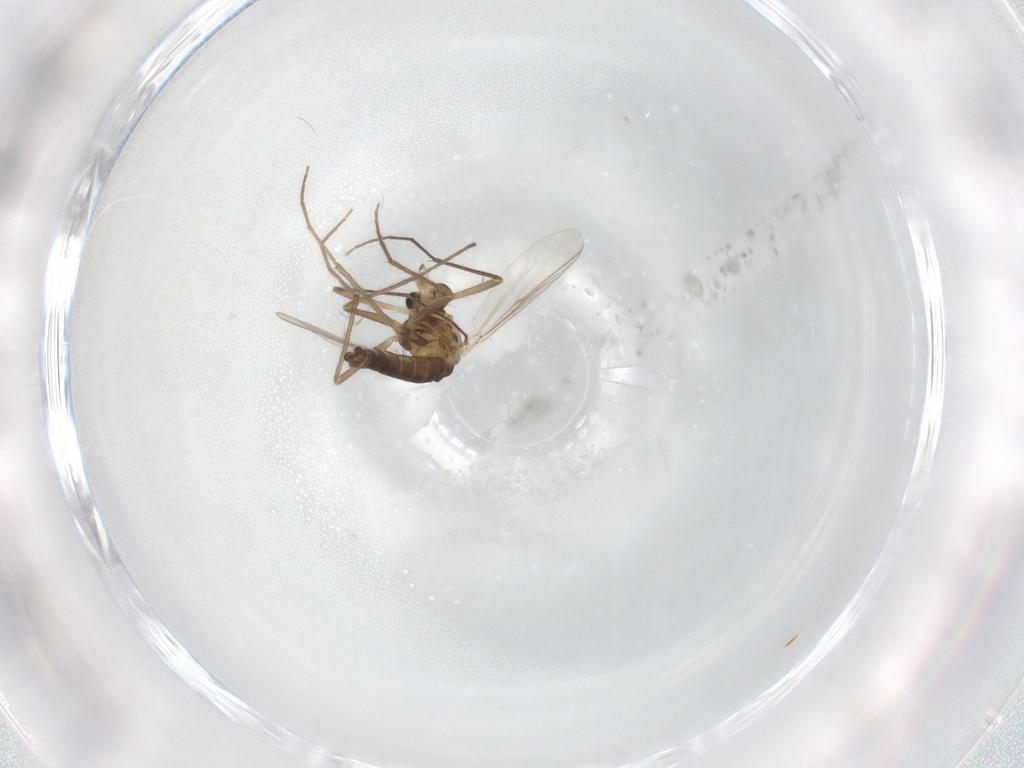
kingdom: Animalia
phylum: Arthropoda
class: Insecta
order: Diptera
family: Chironomidae
